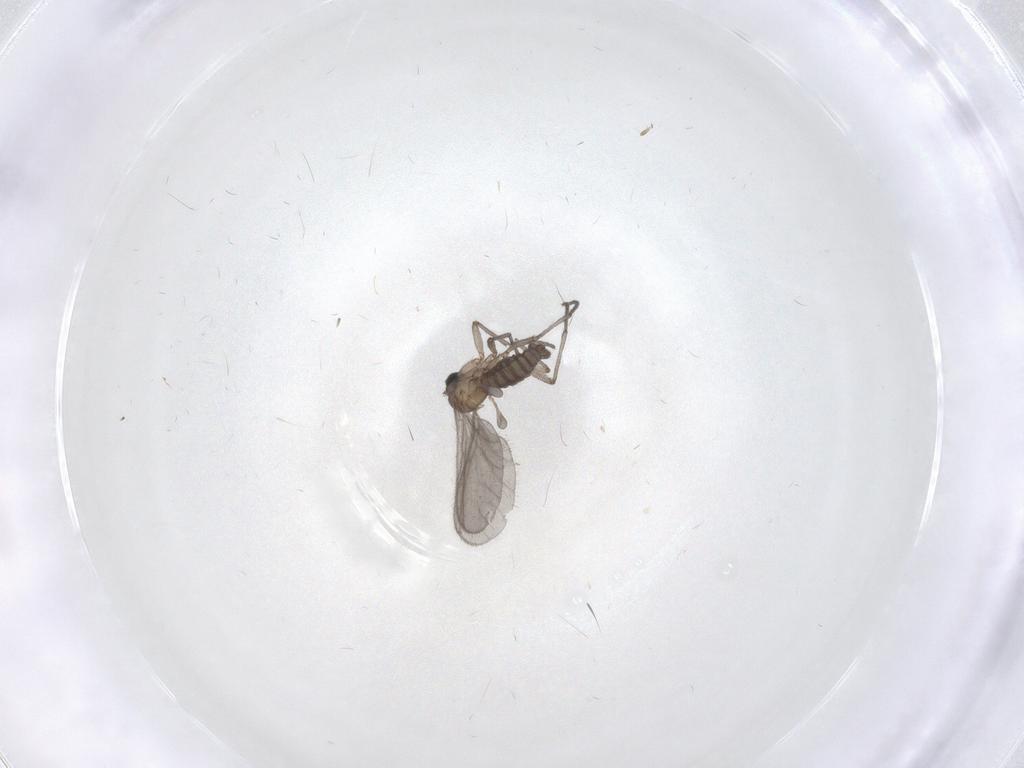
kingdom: Animalia
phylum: Arthropoda
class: Insecta
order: Diptera
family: Sciaridae
